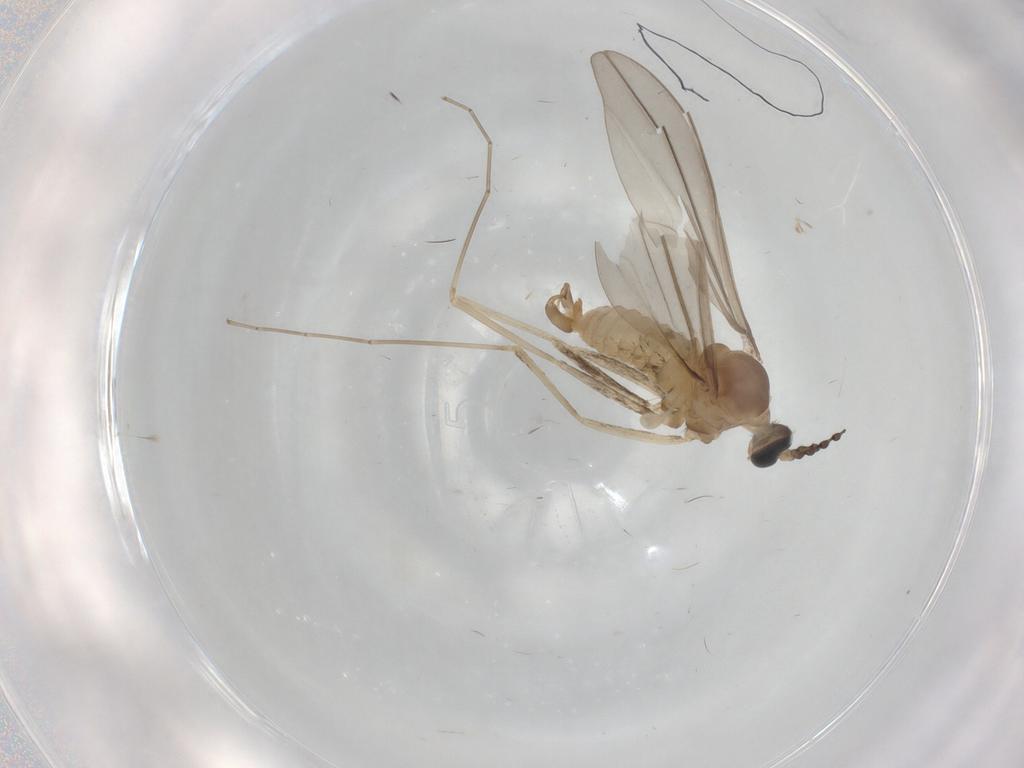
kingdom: Animalia
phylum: Arthropoda
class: Insecta
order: Diptera
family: Cecidomyiidae
